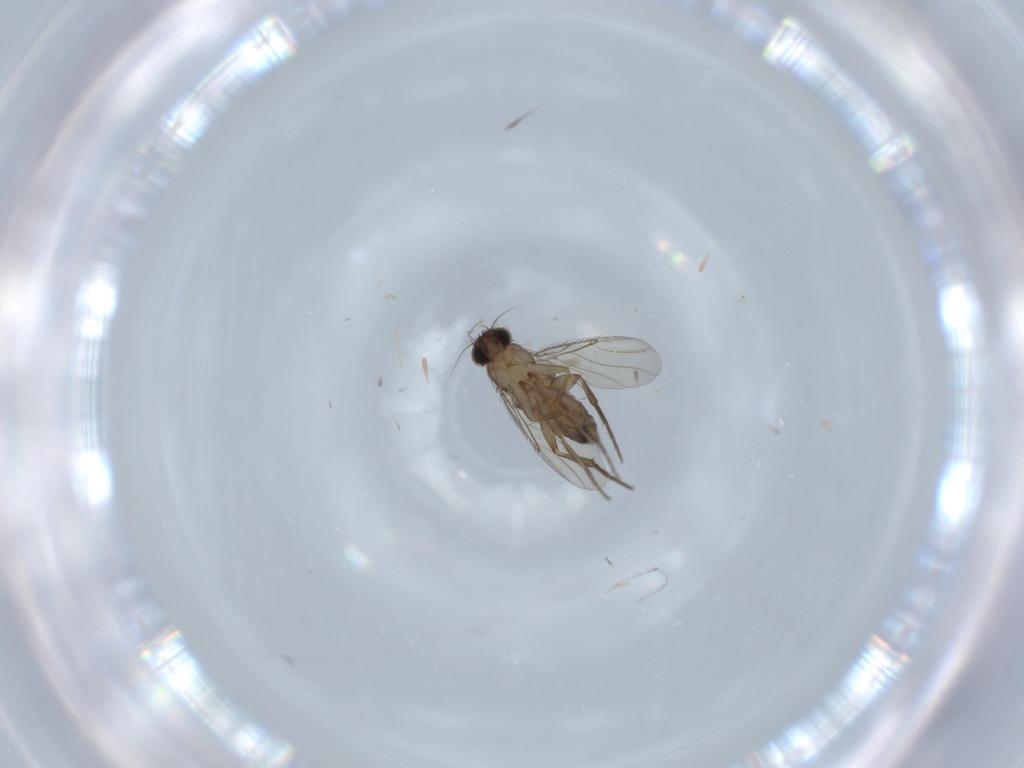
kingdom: Animalia
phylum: Arthropoda
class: Insecta
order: Diptera
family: Phoridae
